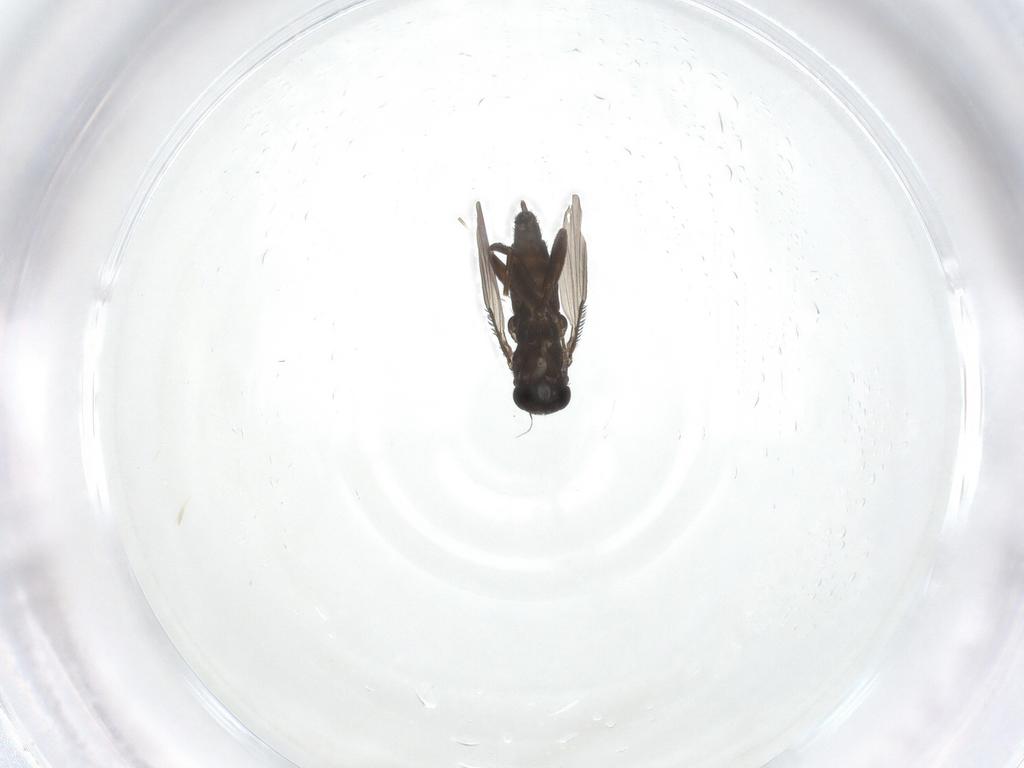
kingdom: Animalia
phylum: Arthropoda
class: Insecta
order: Diptera
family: Phoridae
